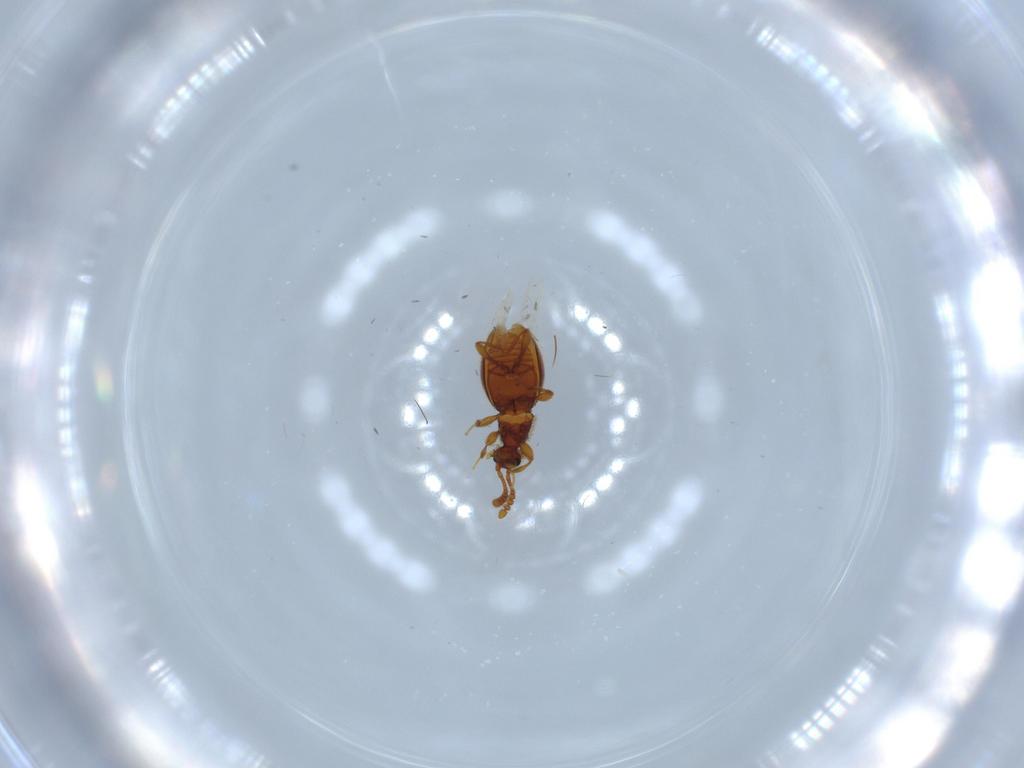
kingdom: Animalia
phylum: Arthropoda
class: Insecta
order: Coleoptera
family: Staphylinidae
